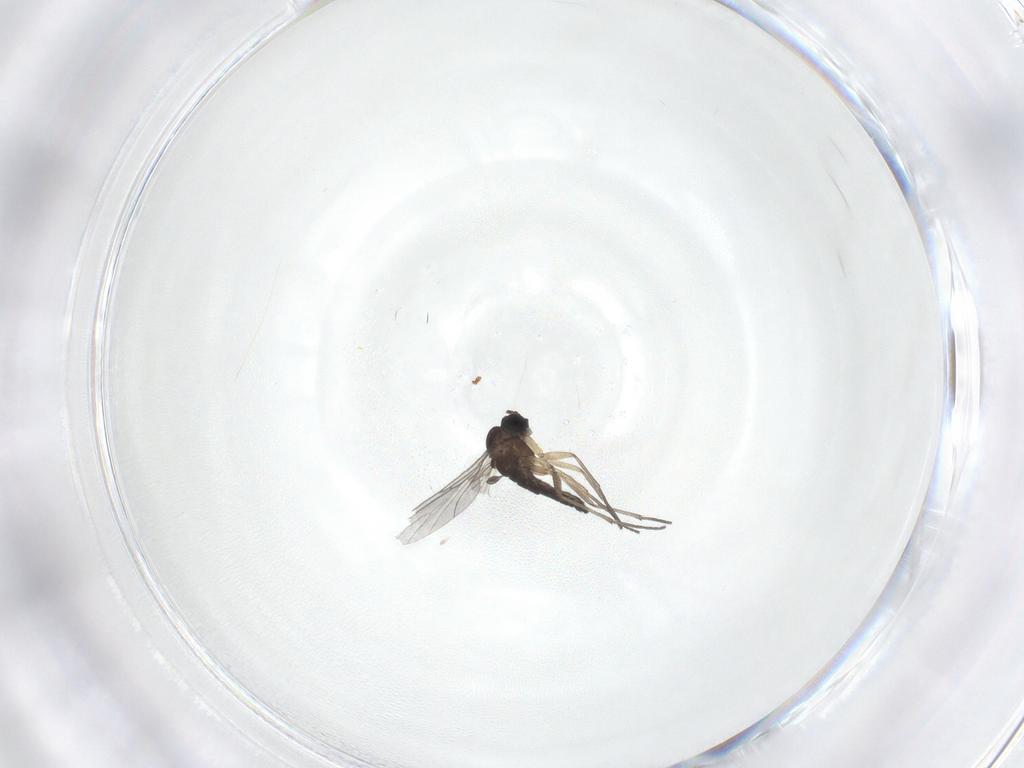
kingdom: Animalia
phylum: Arthropoda
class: Insecta
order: Diptera
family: Sciaridae
